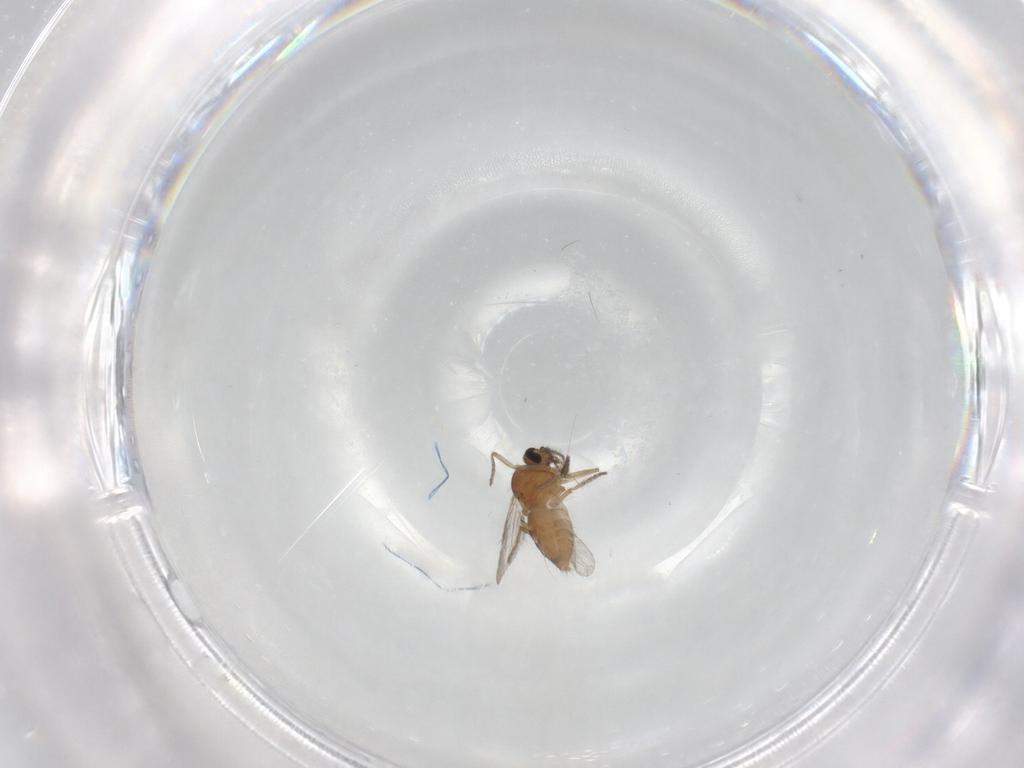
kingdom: Animalia
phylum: Arthropoda
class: Insecta
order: Diptera
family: Ceratopogonidae
